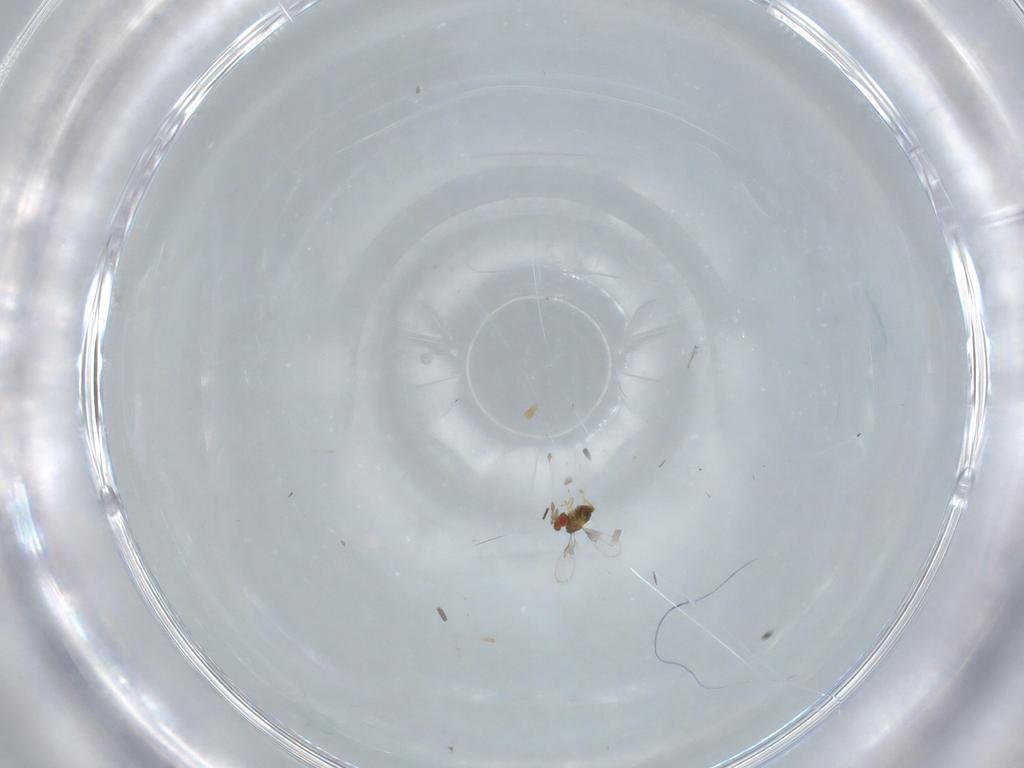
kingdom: Animalia
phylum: Arthropoda
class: Insecta
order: Hymenoptera
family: Trichogrammatidae
